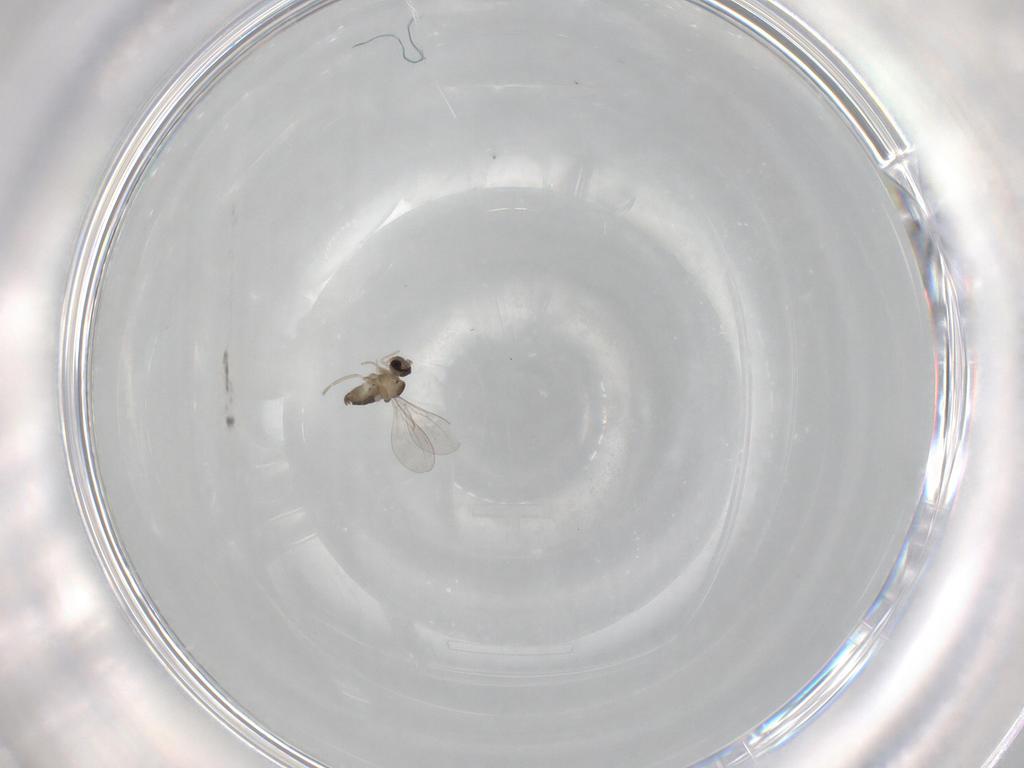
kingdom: Animalia
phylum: Arthropoda
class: Insecta
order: Diptera
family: Cecidomyiidae
